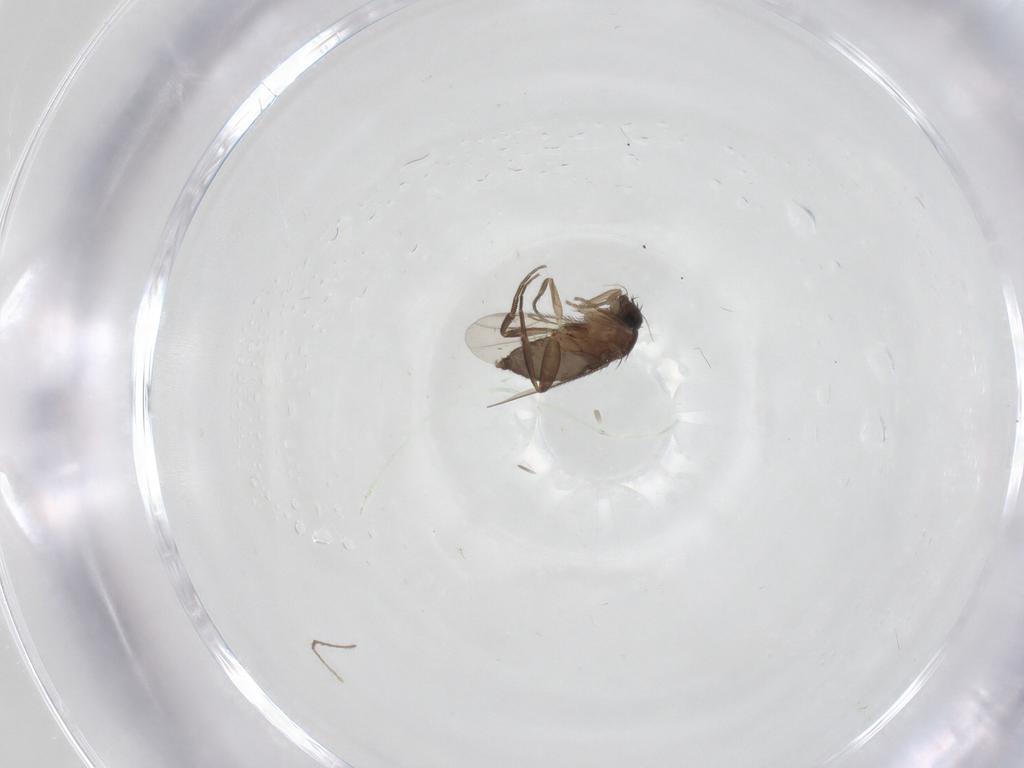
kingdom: Animalia
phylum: Arthropoda
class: Insecta
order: Diptera
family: Phoridae
